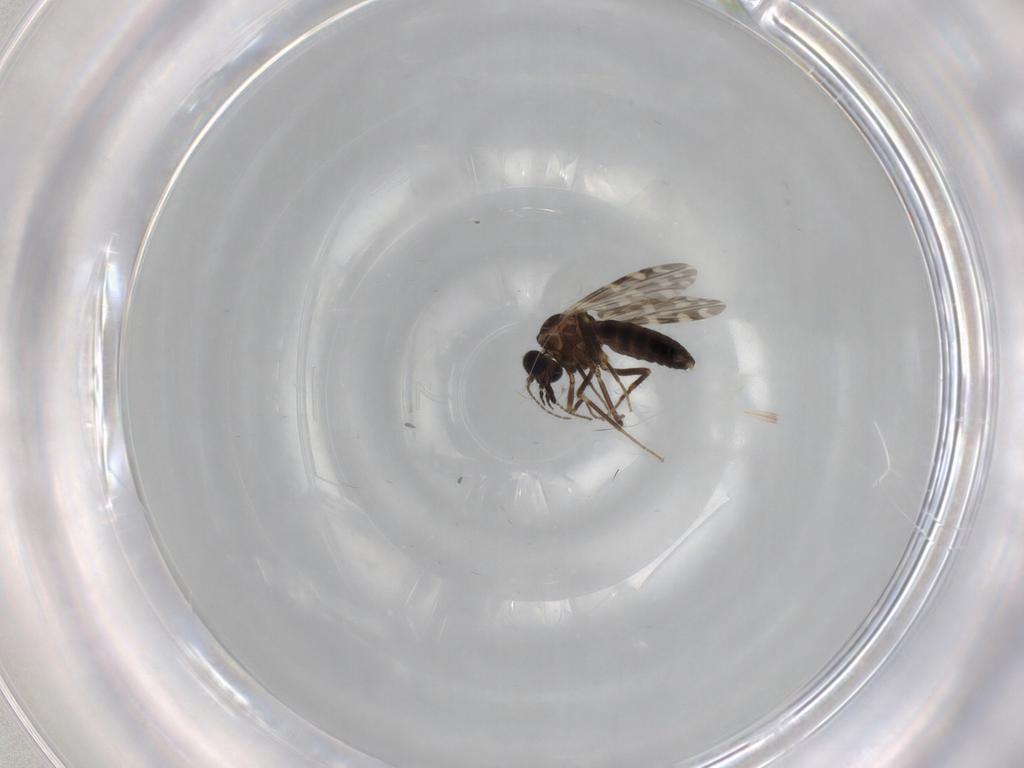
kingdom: Animalia
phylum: Arthropoda
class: Insecta
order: Diptera
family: Ceratopogonidae
